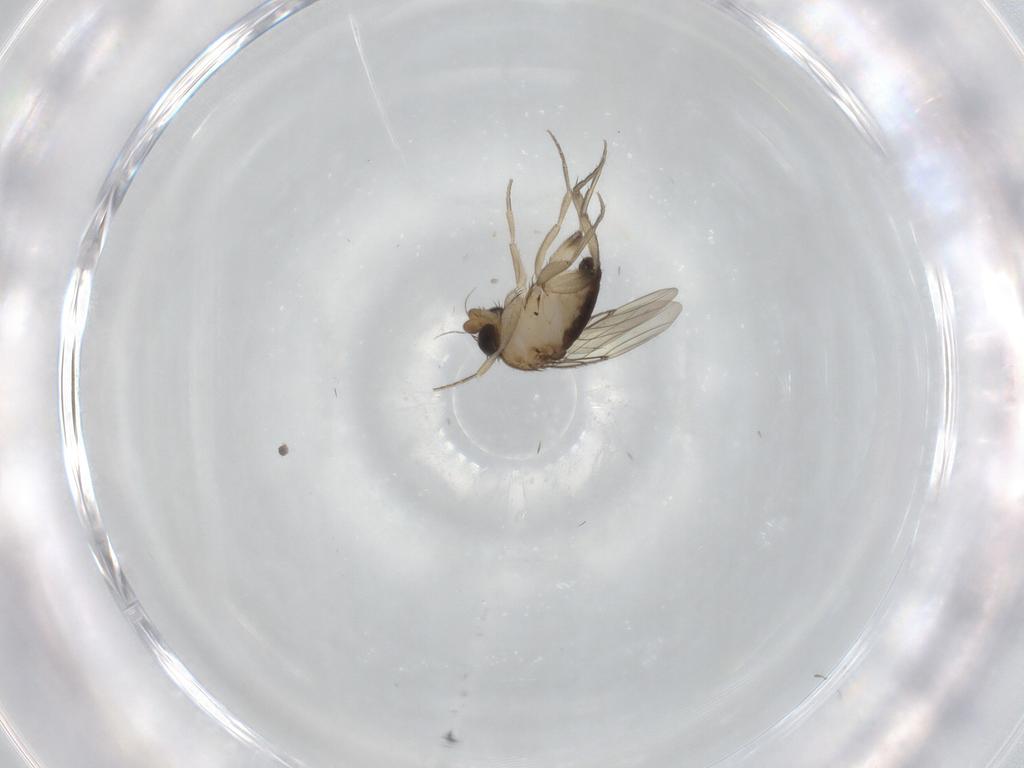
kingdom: Animalia
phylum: Arthropoda
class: Insecta
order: Diptera
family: Phoridae
